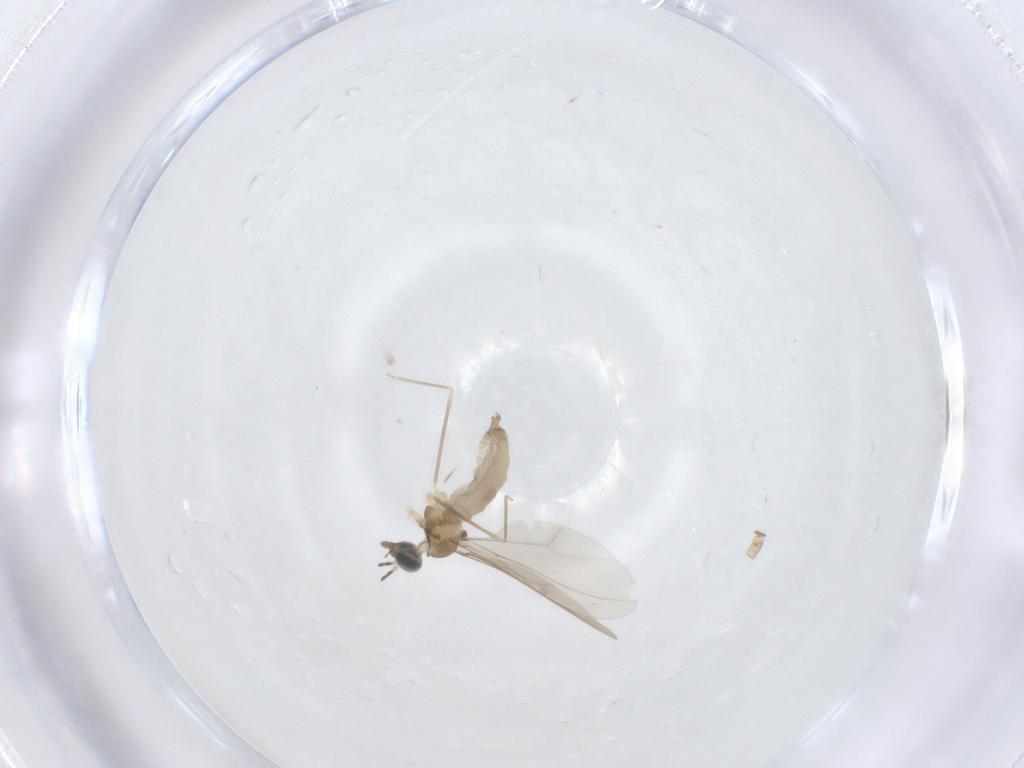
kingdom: Animalia
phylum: Arthropoda
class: Insecta
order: Diptera
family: Cecidomyiidae
